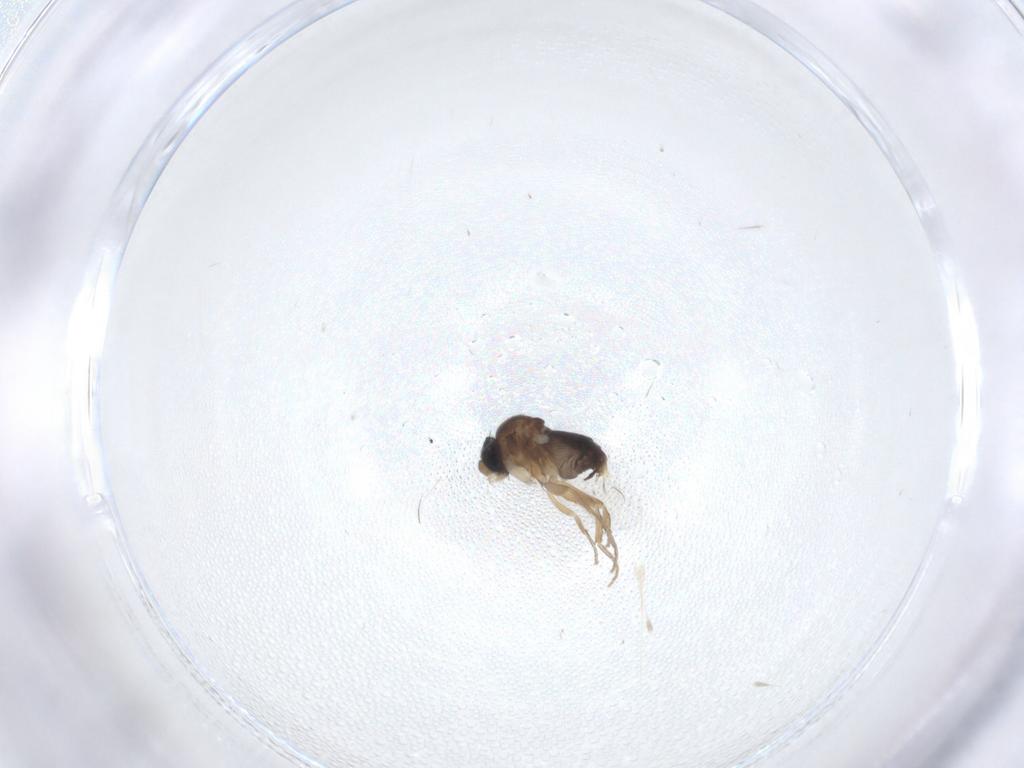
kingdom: Animalia
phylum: Arthropoda
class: Insecta
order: Diptera
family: Phoridae
